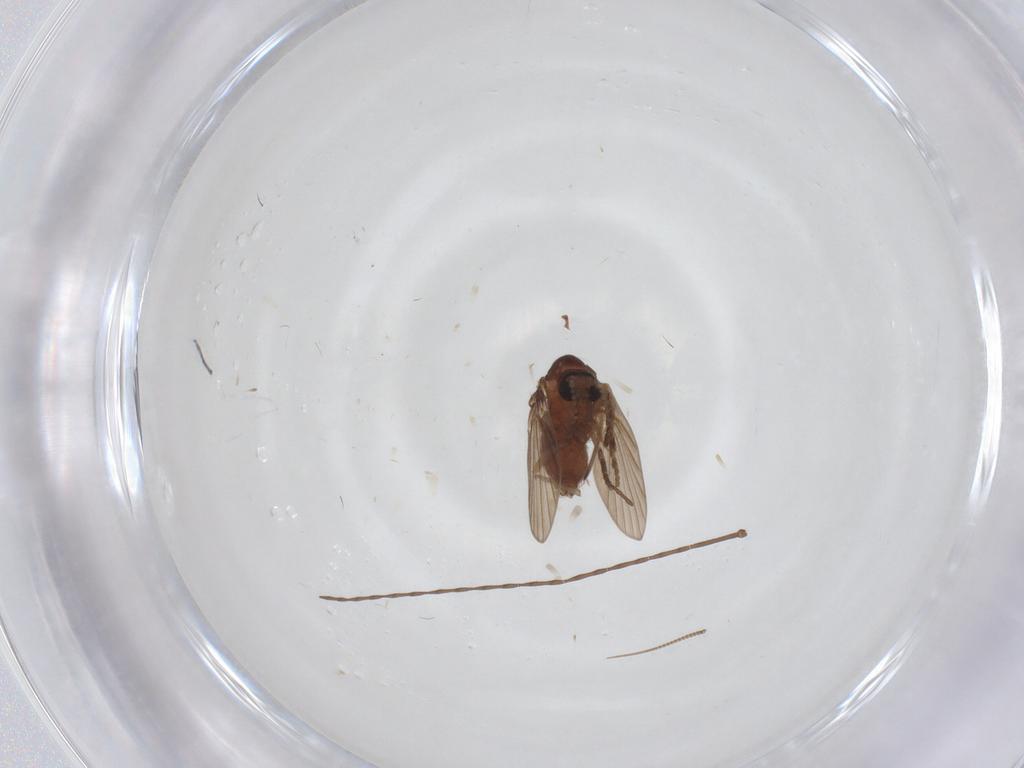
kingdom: Animalia
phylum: Arthropoda
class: Insecta
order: Diptera
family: Psychodidae
